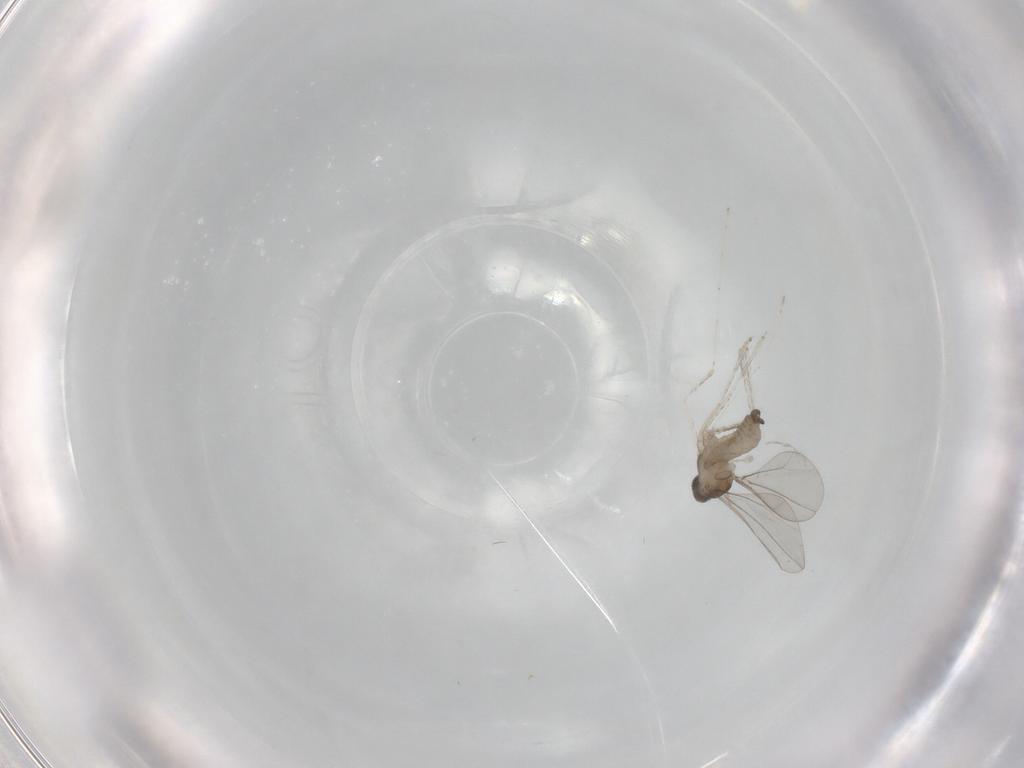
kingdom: Animalia
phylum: Arthropoda
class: Insecta
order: Diptera
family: Cecidomyiidae
